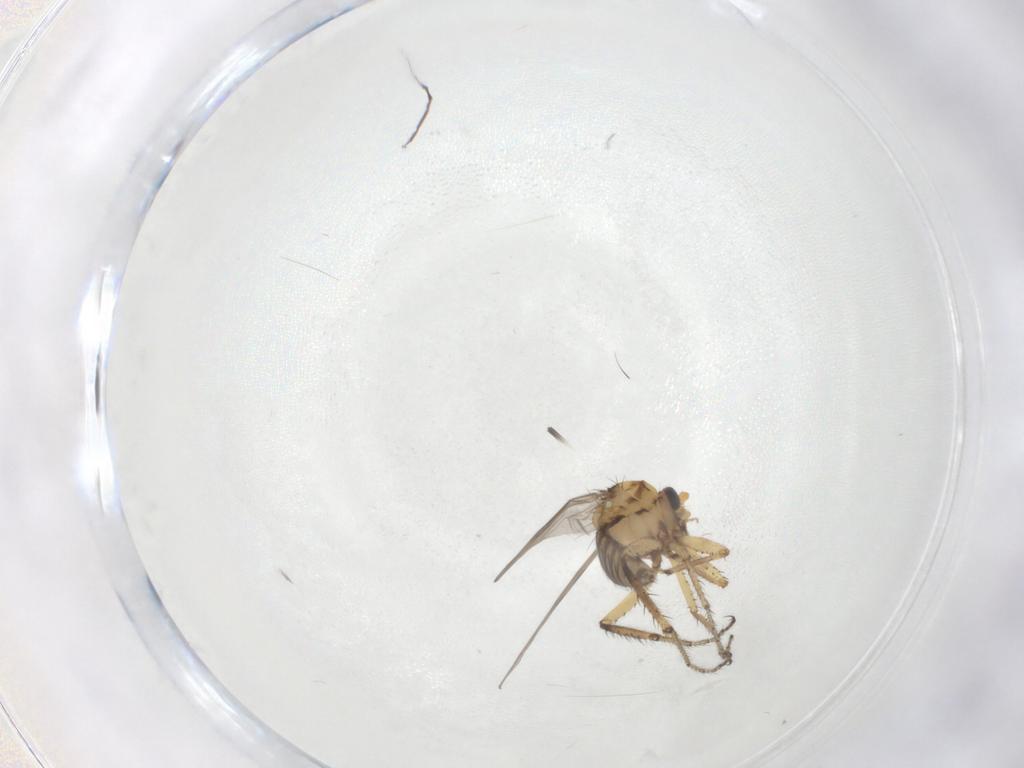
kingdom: Animalia
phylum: Arthropoda
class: Insecta
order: Diptera
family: Ceratopogonidae
